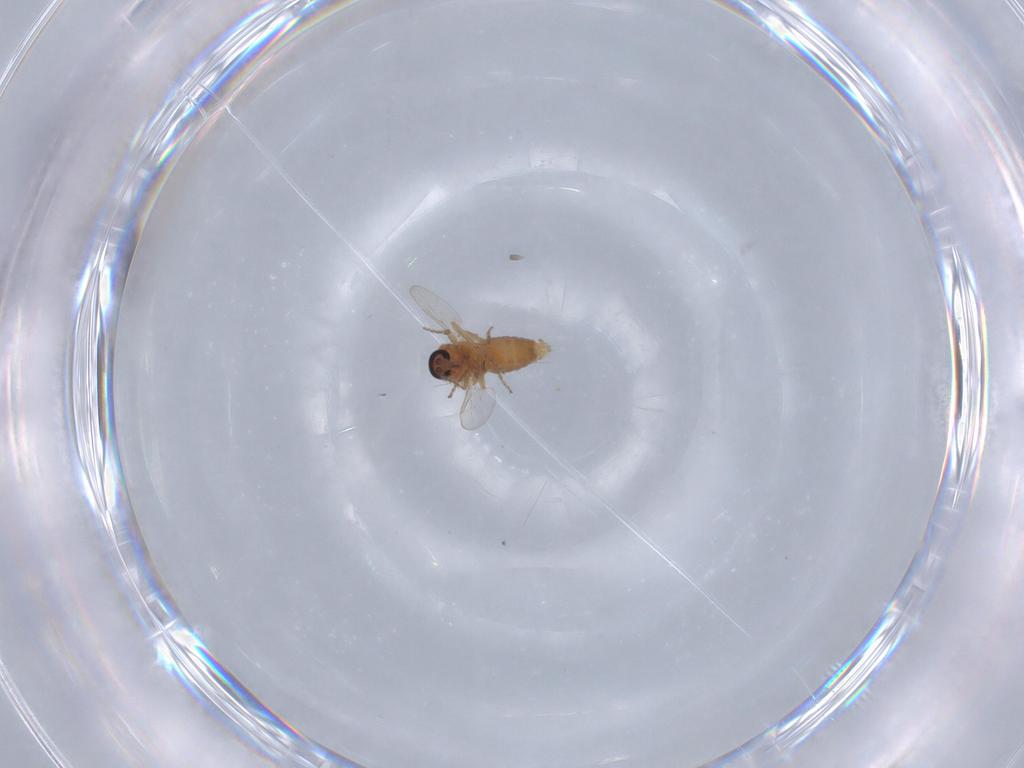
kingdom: Animalia
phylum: Arthropoda
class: Insecta
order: Diptera
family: Ceratopogonidae
